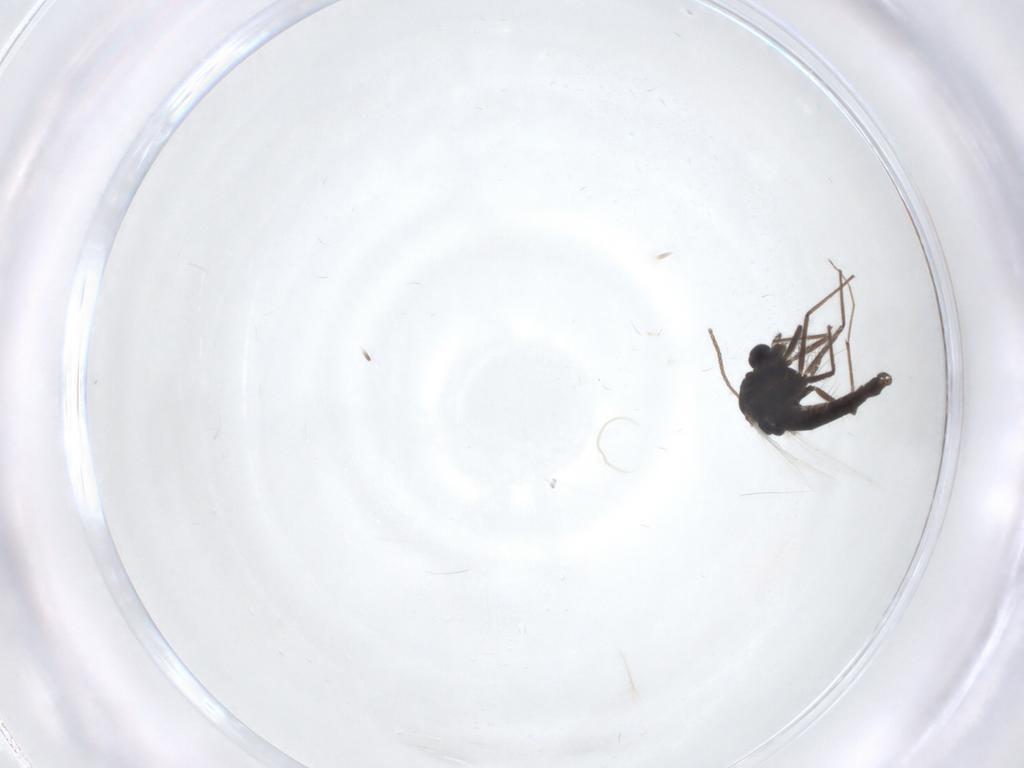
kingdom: Animalia
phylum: Arthropoda
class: Insecta
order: Diptera
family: Chironomidae
